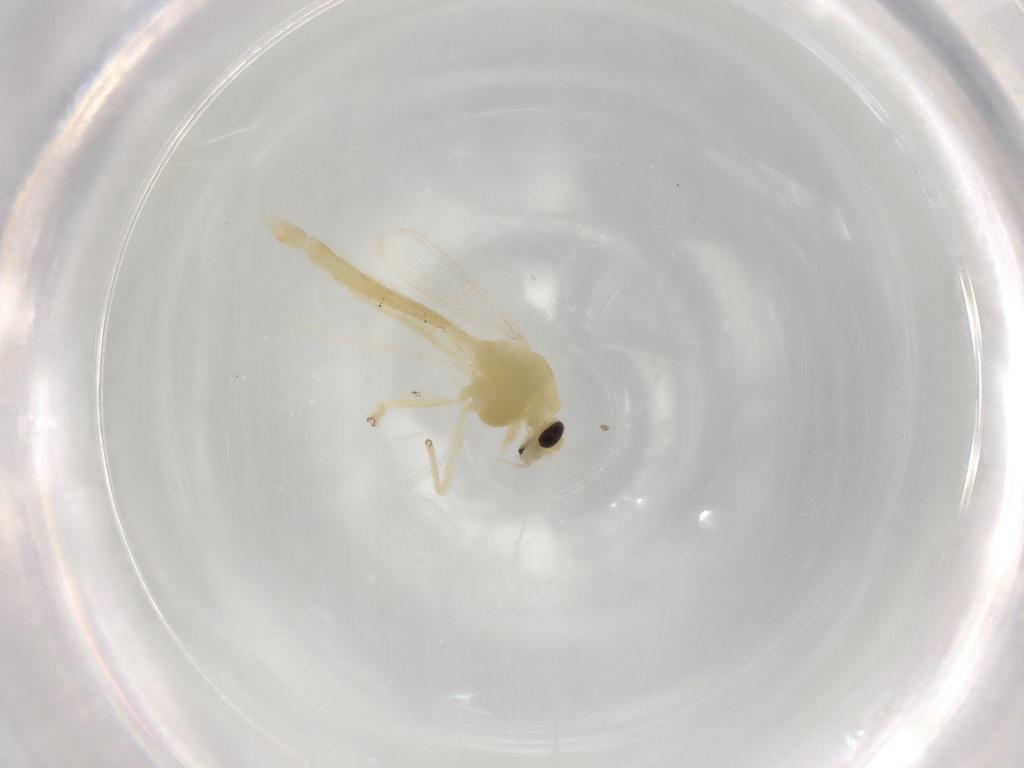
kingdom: Animalia
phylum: Arthropoda
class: Insecta
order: Diptera
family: Chironomidae
